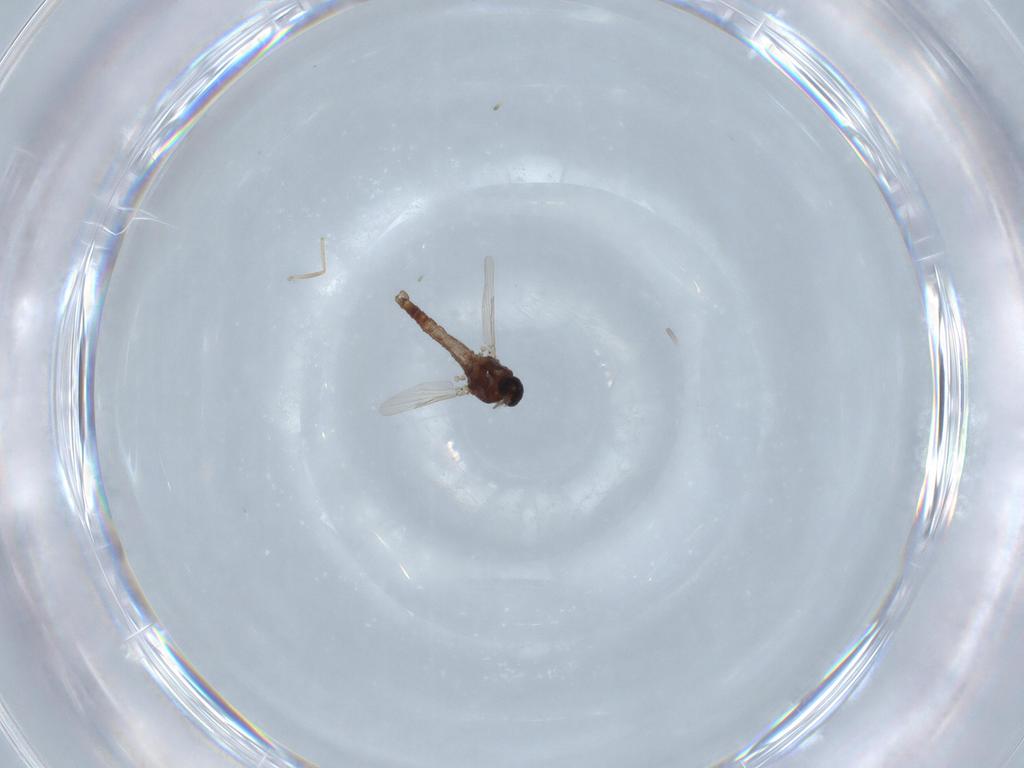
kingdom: Animalia
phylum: Arthropoda
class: Insecta
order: Diptera
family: Ceratopogonidae
